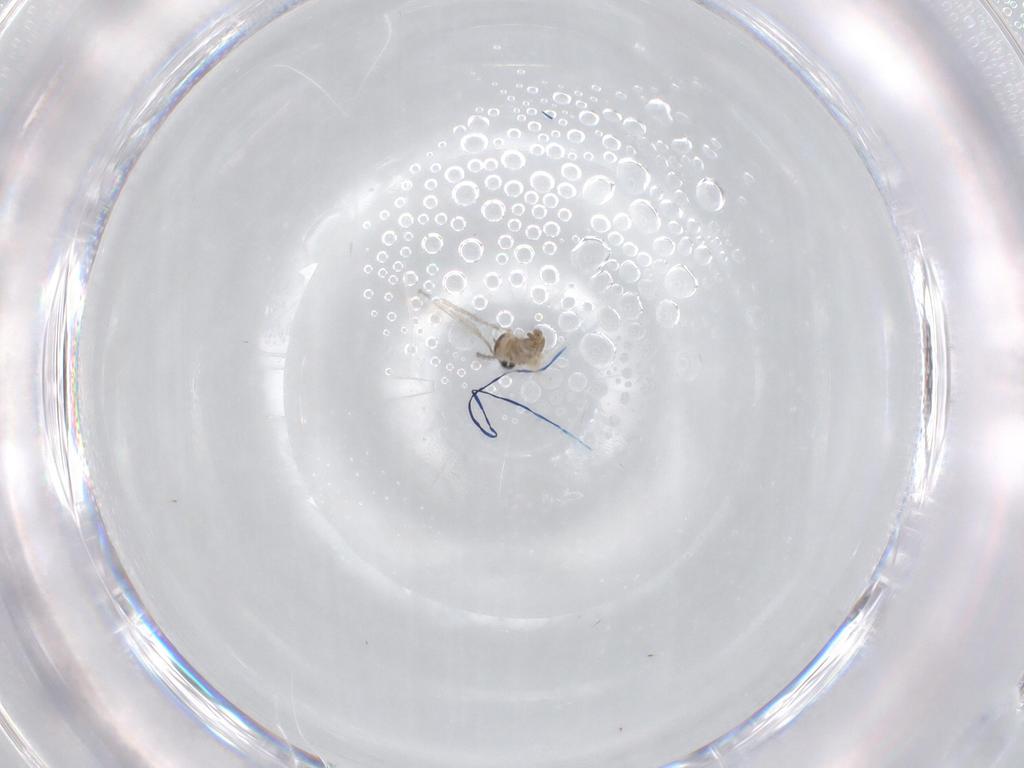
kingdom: Animalia
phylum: Arthropoda
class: Insecta
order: Diptera
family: Cecidomyiidae
